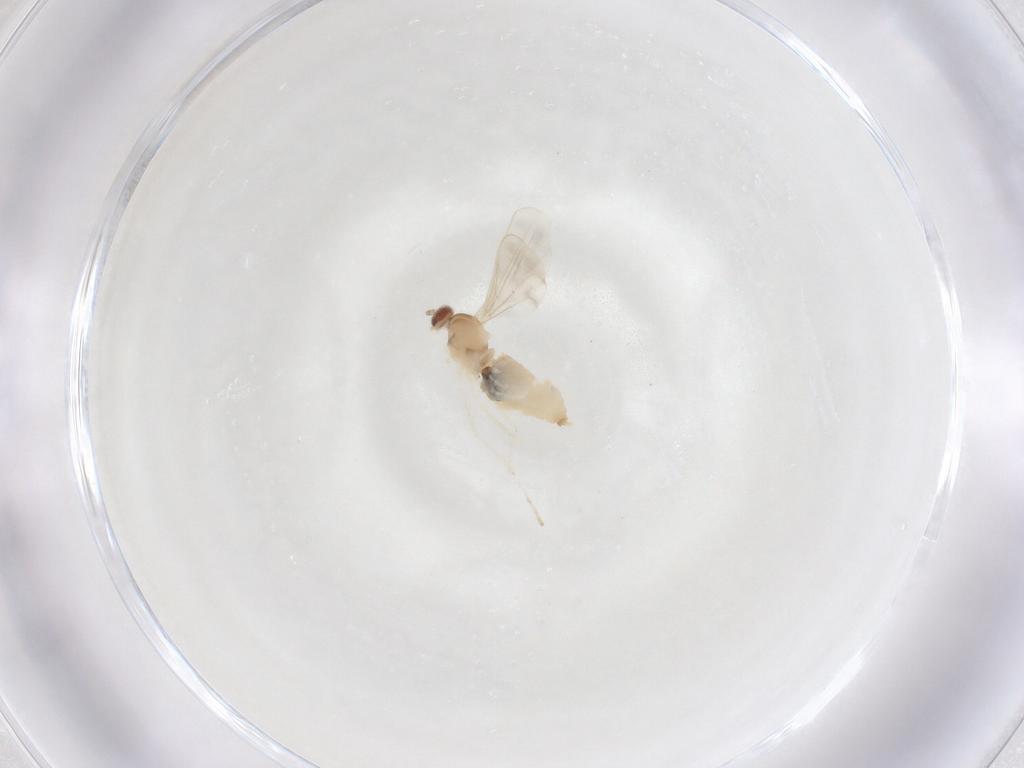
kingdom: Animalia
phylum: Arthropoda
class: Insecta
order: Diptera
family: Cecidomyiidae
